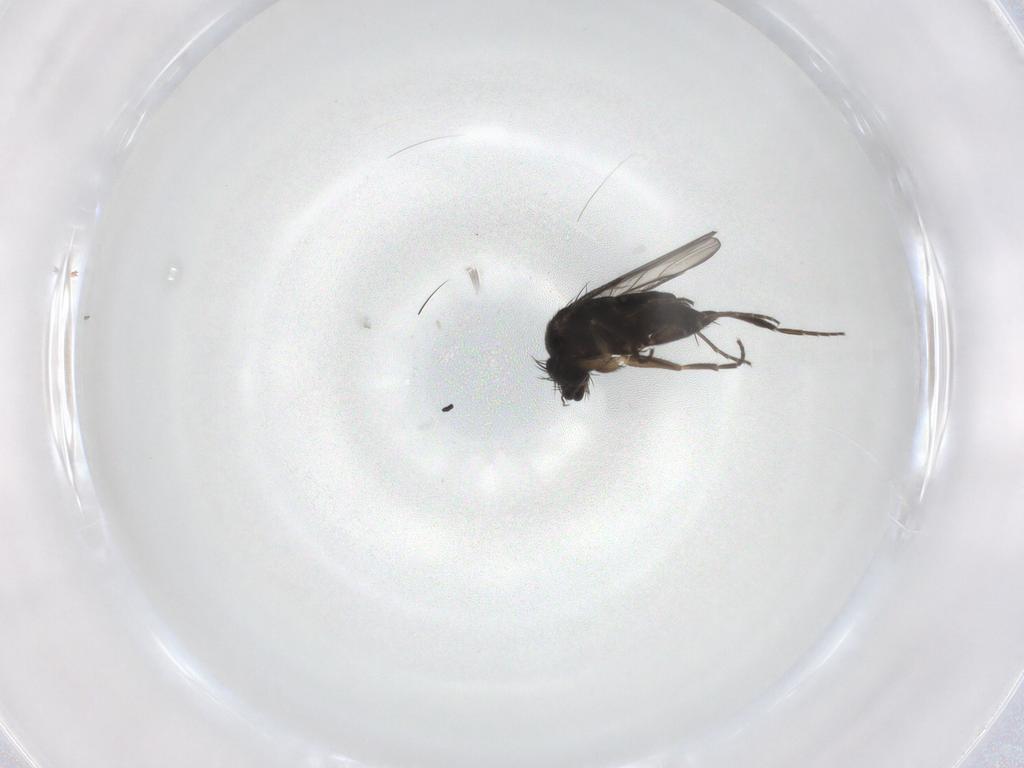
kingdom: Animalia
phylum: Arthropoda
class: Insecta
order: Diptera
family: Phoridae
